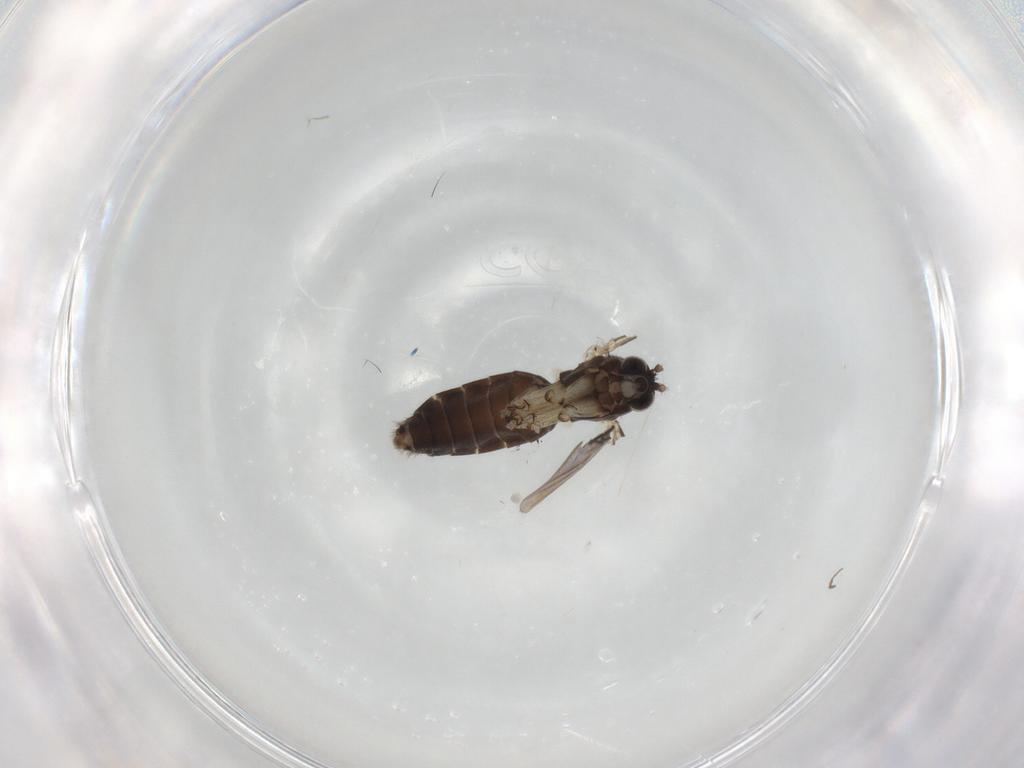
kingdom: Animalia
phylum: Arthropoda
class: Insecta
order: Diptera
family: Mycetophilidae
